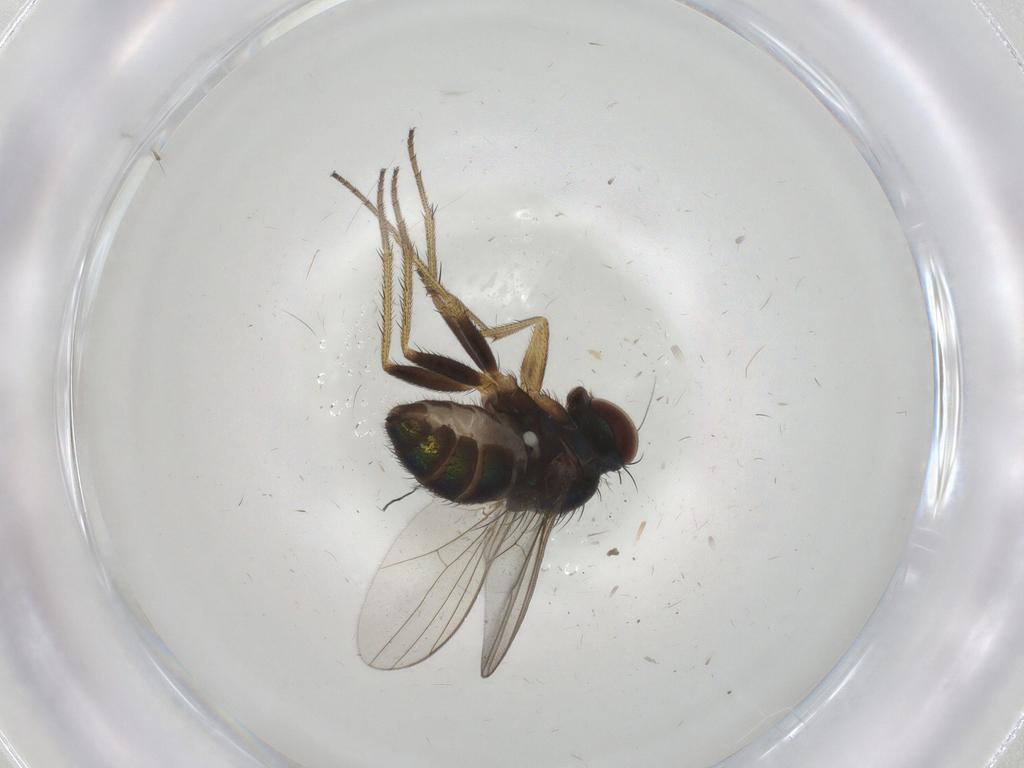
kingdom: Animalia
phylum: Arthropoda
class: Insecta
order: Diptera
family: Dolichopodidae
